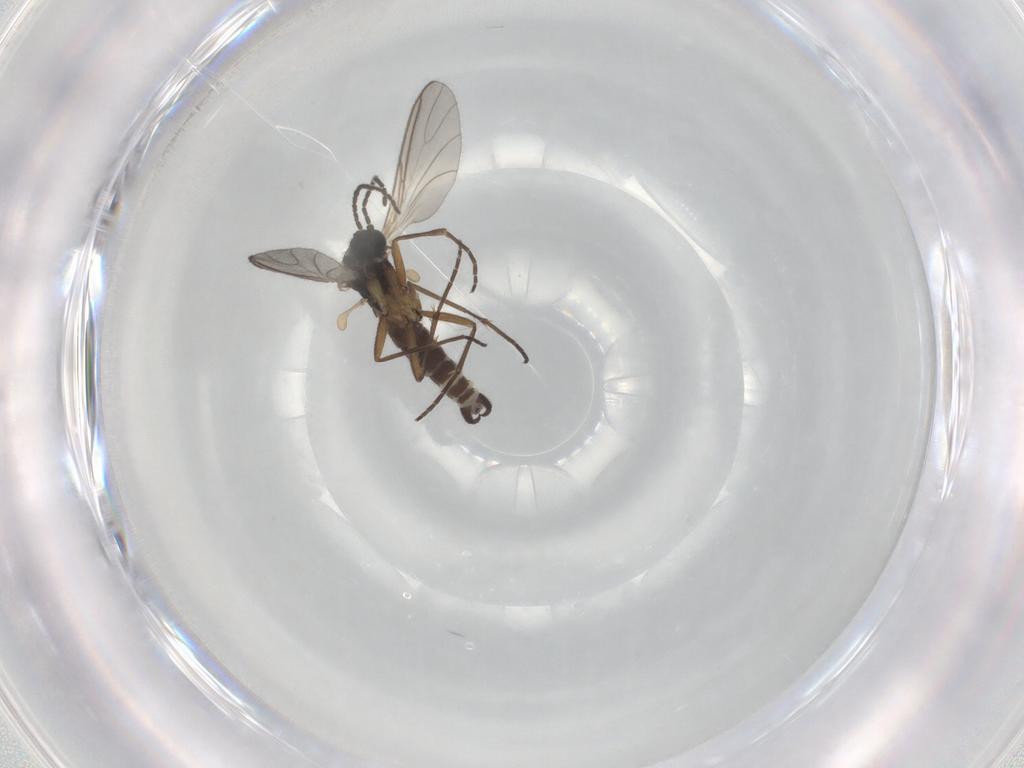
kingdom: Animalia
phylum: Arthropoda
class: Insecta
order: Diptera
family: Sciaridae
